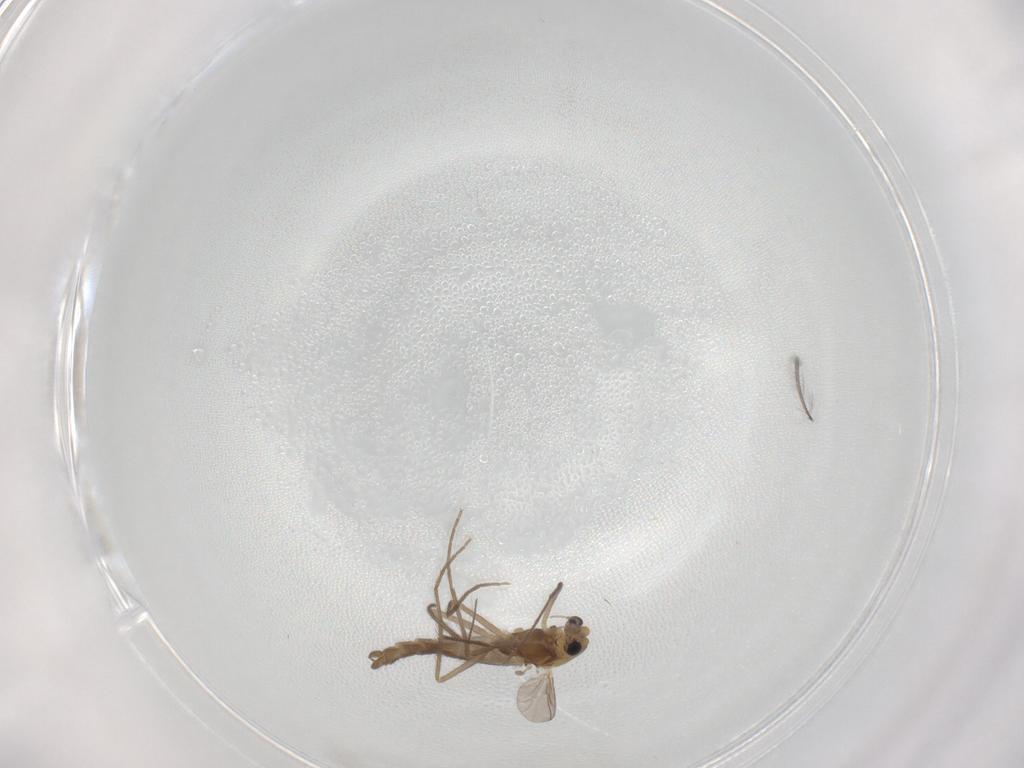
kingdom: Animalia
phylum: Arthropoda
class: Insecta
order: Diptera
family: Chironomidae
